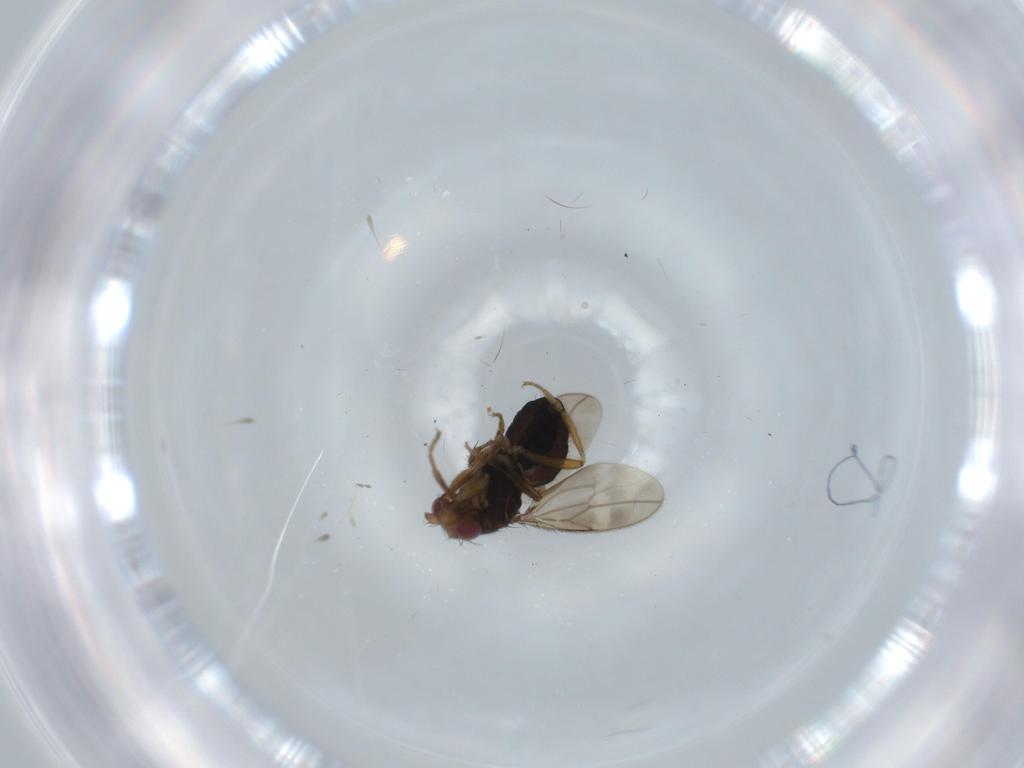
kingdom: Animalia
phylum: Arthropoda
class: Insecta
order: Diptera
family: Sphaeroceridae
